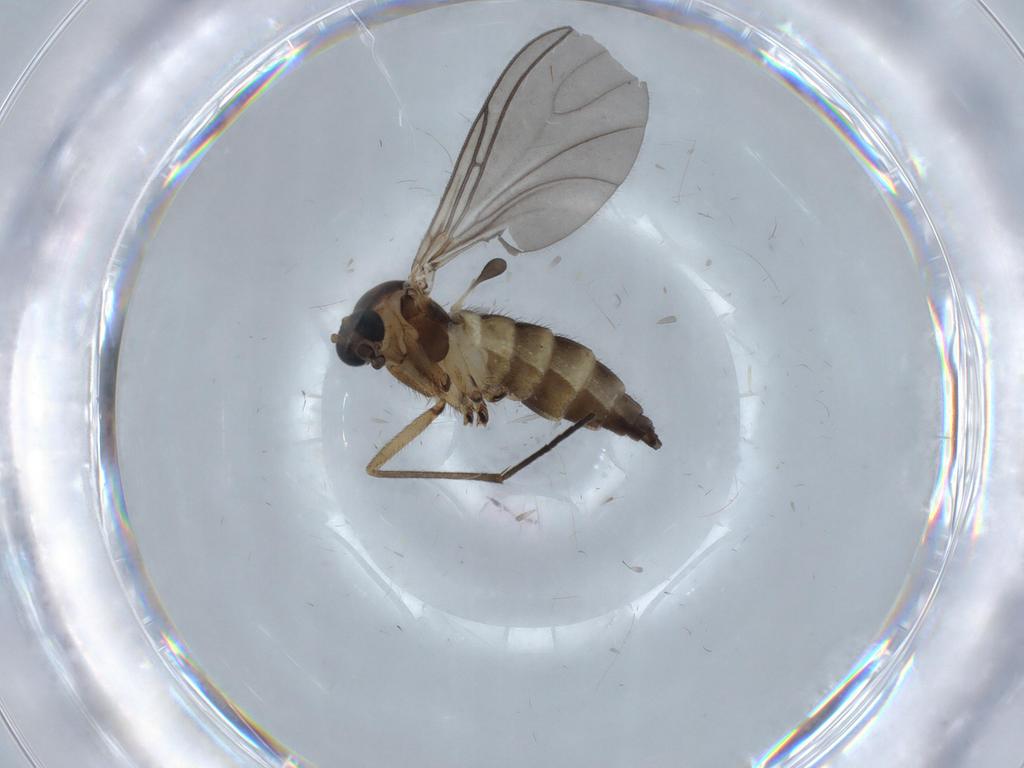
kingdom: Animalia
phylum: Arthropoda
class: Insecta
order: Diptera
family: Sciaridae
